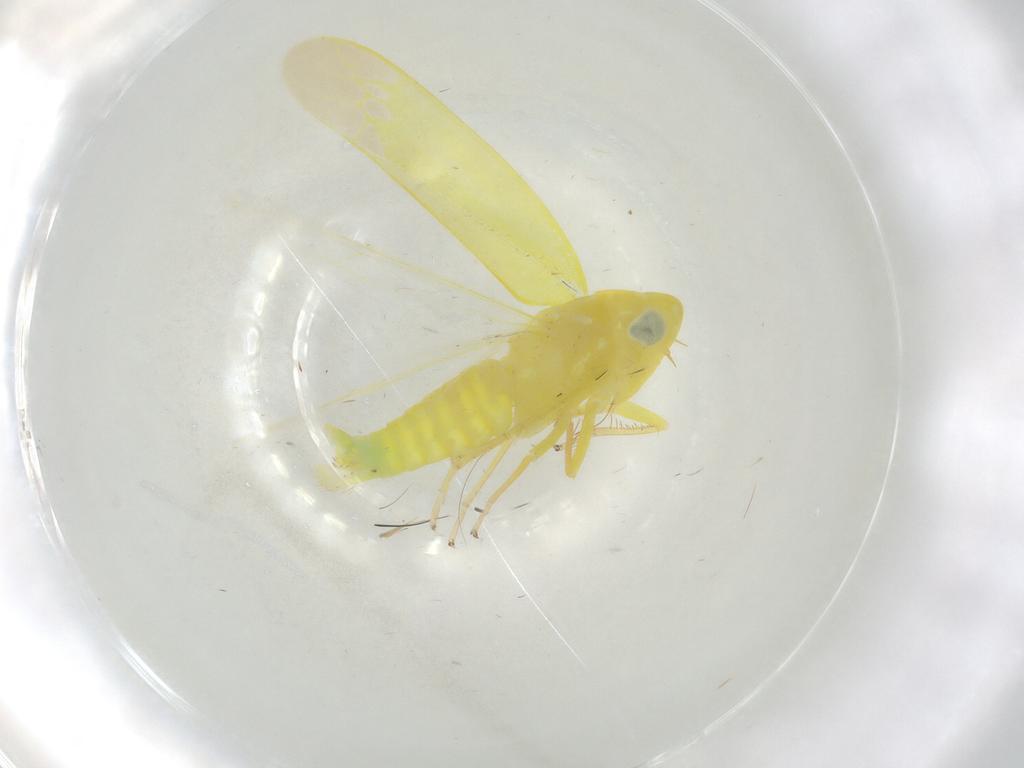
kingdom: Animalia
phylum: Arthropoda
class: Insecta
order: Hemiptera
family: Cicadellidae
